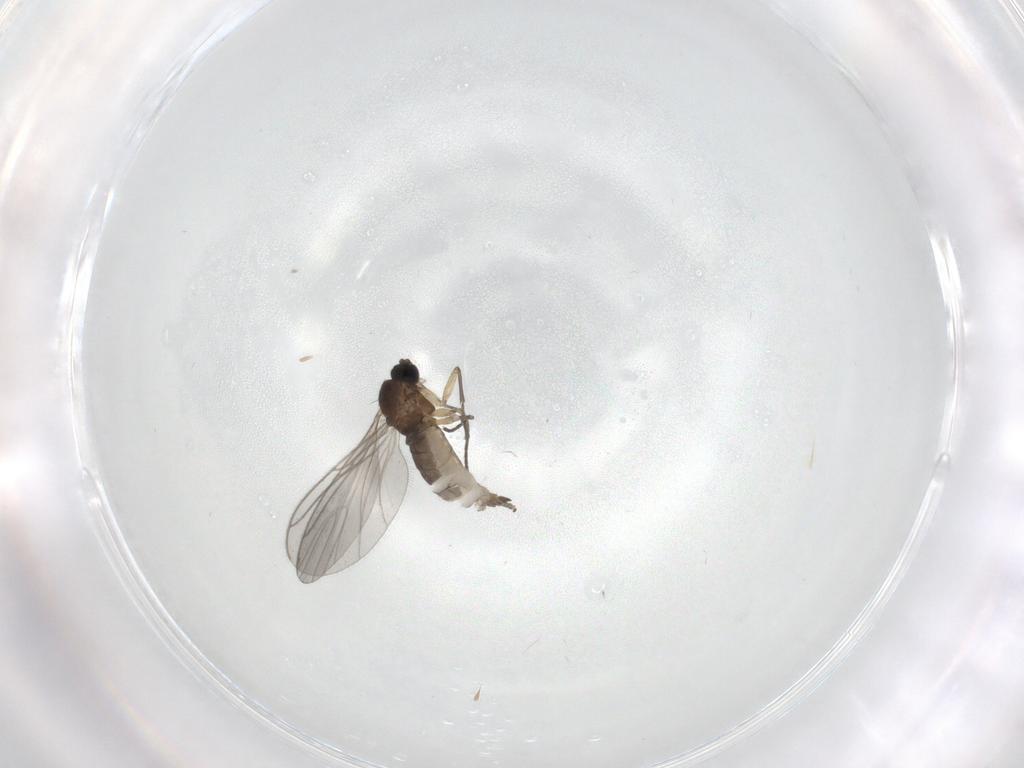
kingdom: Animalia
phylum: Arthropoda
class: Insecta
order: Diptera
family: Sciaridae
